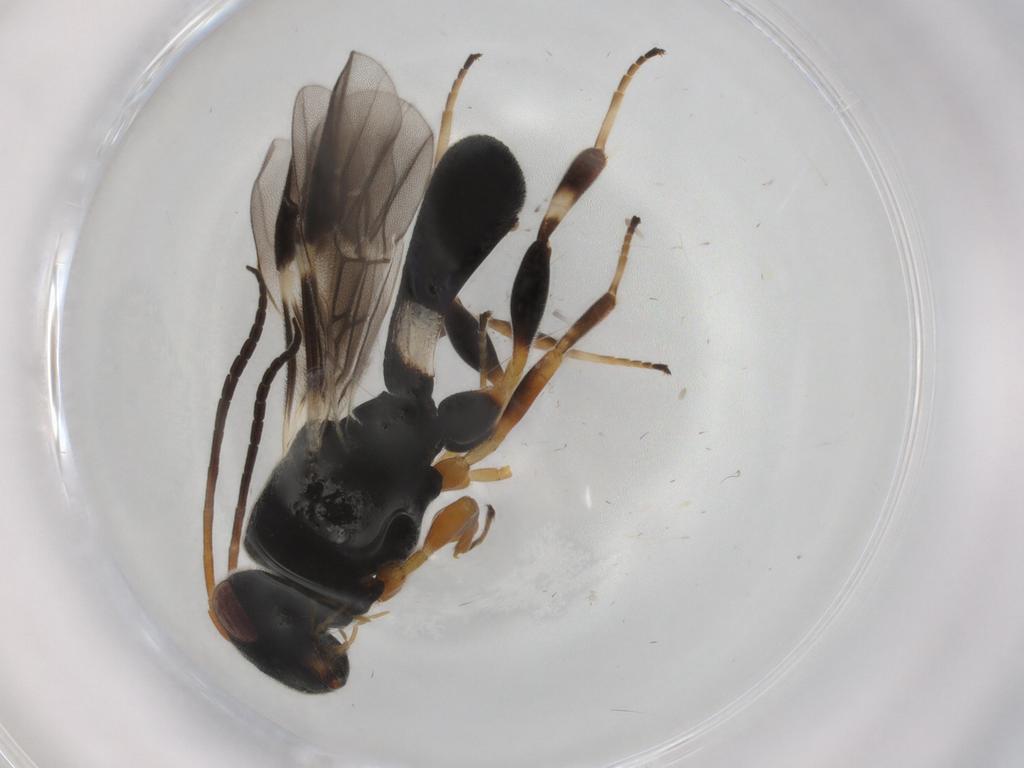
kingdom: Animalia
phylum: Arthropoda
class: Insecta
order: Hymenoptera
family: Braconidae
